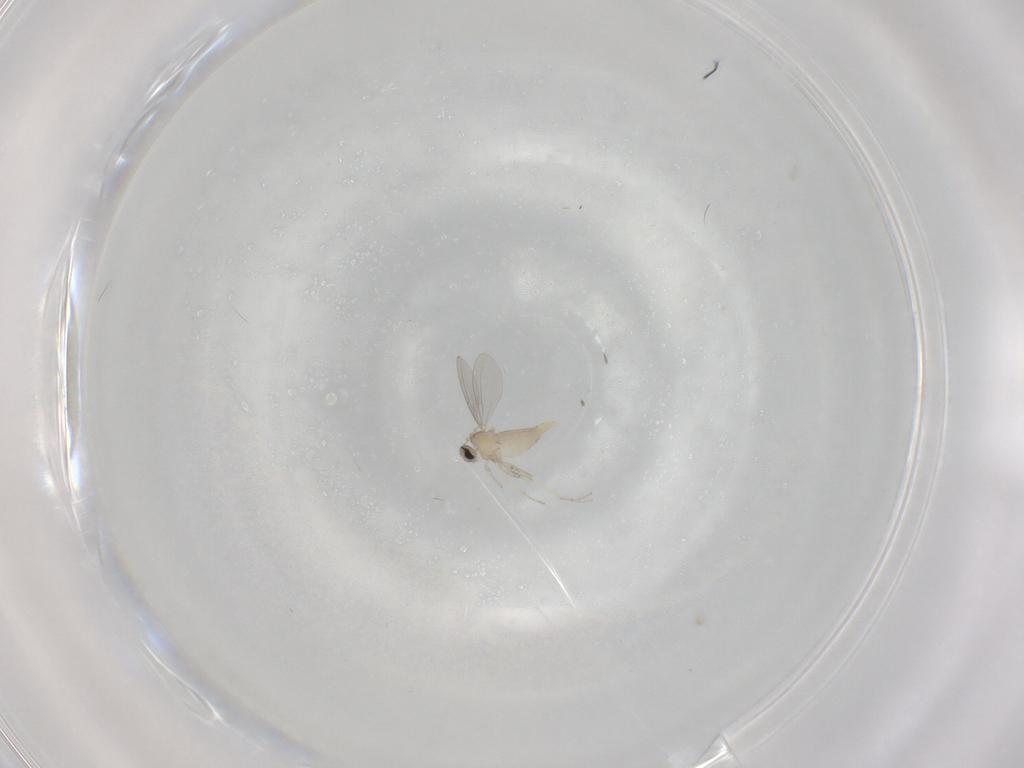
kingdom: Animalia
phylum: Arthropoda
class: Insecta
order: Diptera
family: Cecidomyiidae
